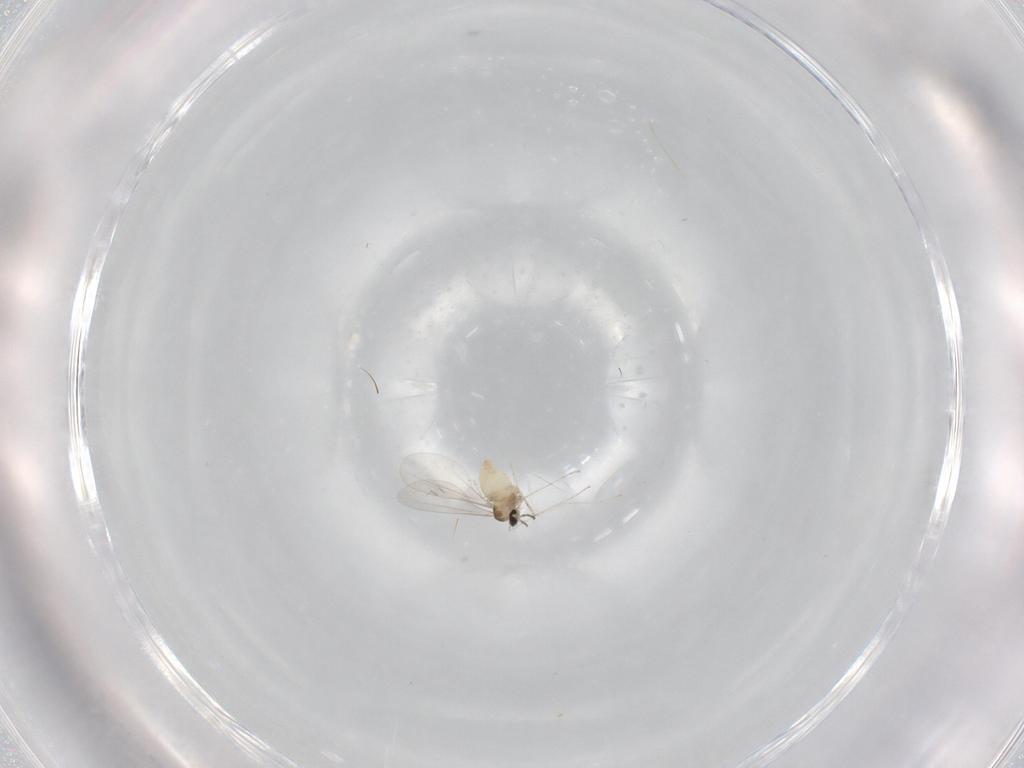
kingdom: Animalia
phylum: Arthropoda
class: Insecta
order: Diptera
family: Cecidomyiidae
